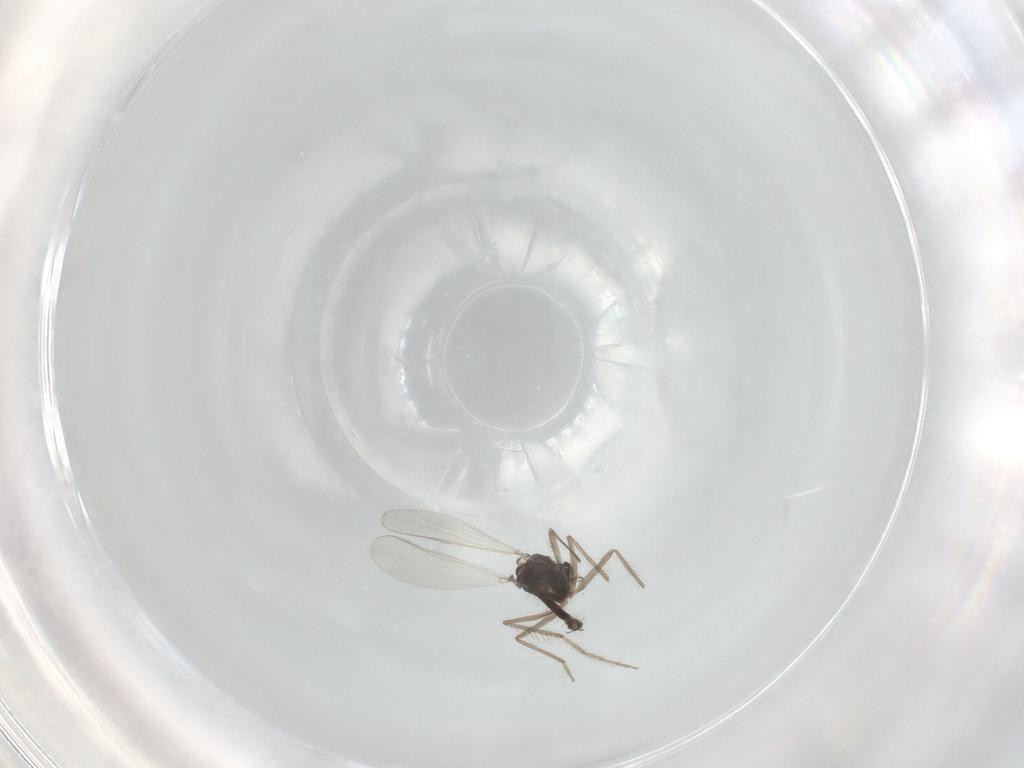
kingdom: Animalia
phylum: Arthropoda
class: Insecta
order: Diptera
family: Chironomidae
